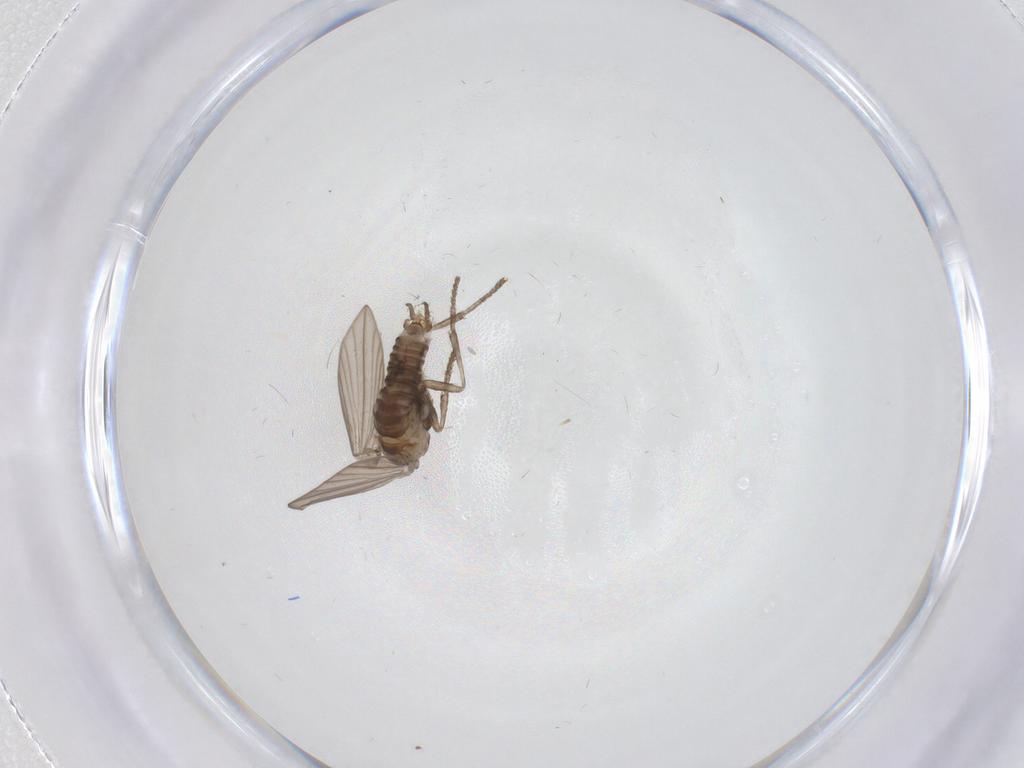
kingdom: Animalia
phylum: Arthropoda
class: Insecta
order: Diptera
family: Psychodidae
